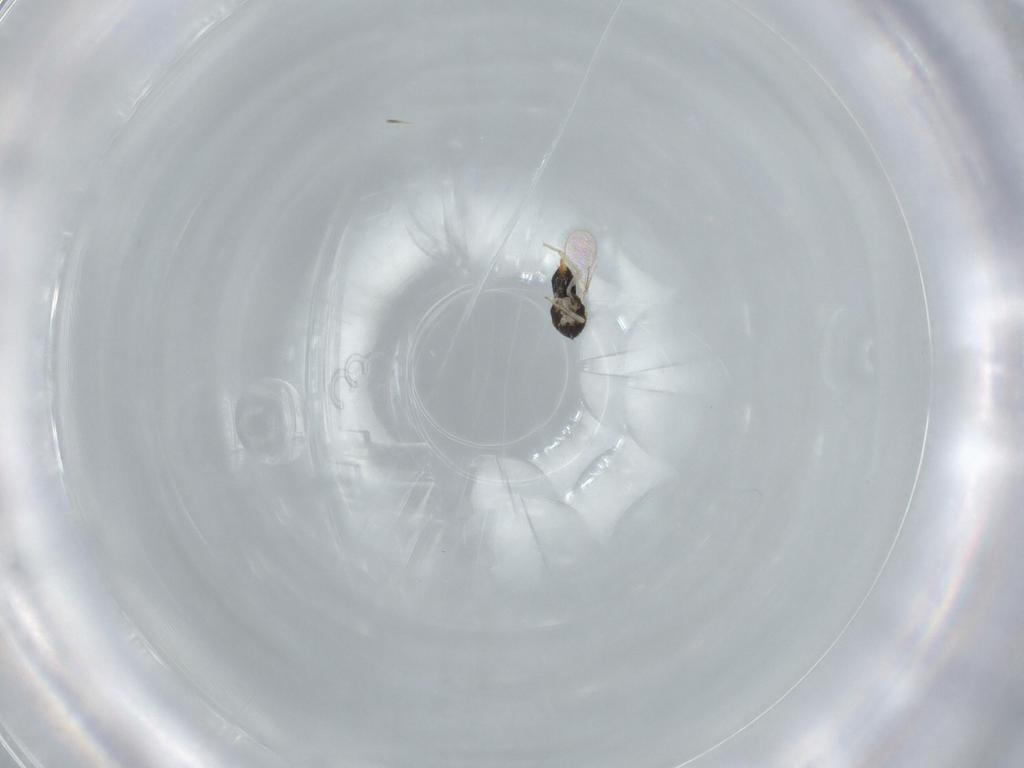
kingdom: Animalia
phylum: Arthropoda
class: Insecta
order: Hymenoptera
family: Aphelinidae
